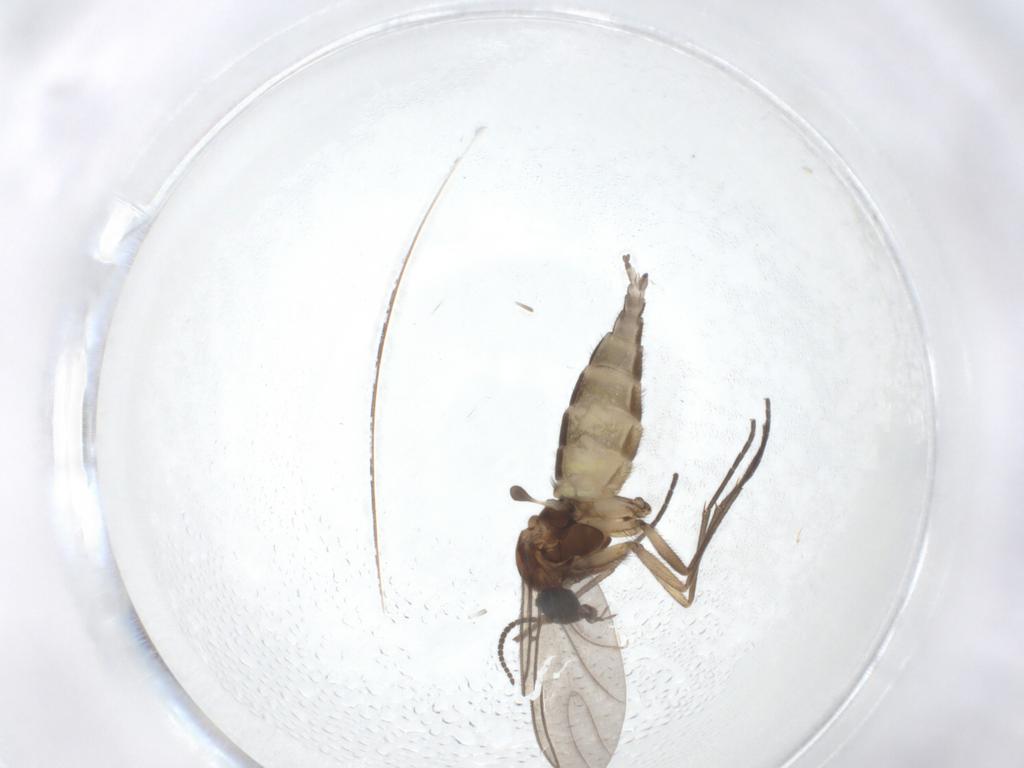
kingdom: Animalia
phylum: Arthropoda
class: Insecta
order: Diptera
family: Sciaridae
